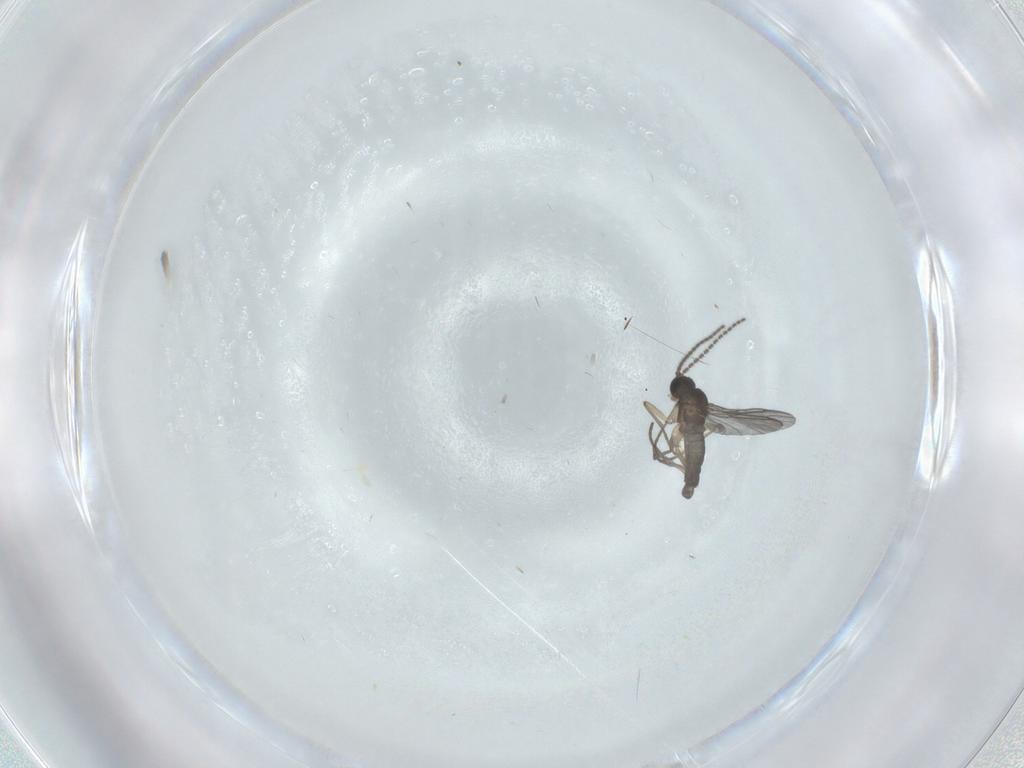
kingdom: Animalia
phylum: Arthropoda
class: Insecta
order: Diptera
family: Sciaridae
